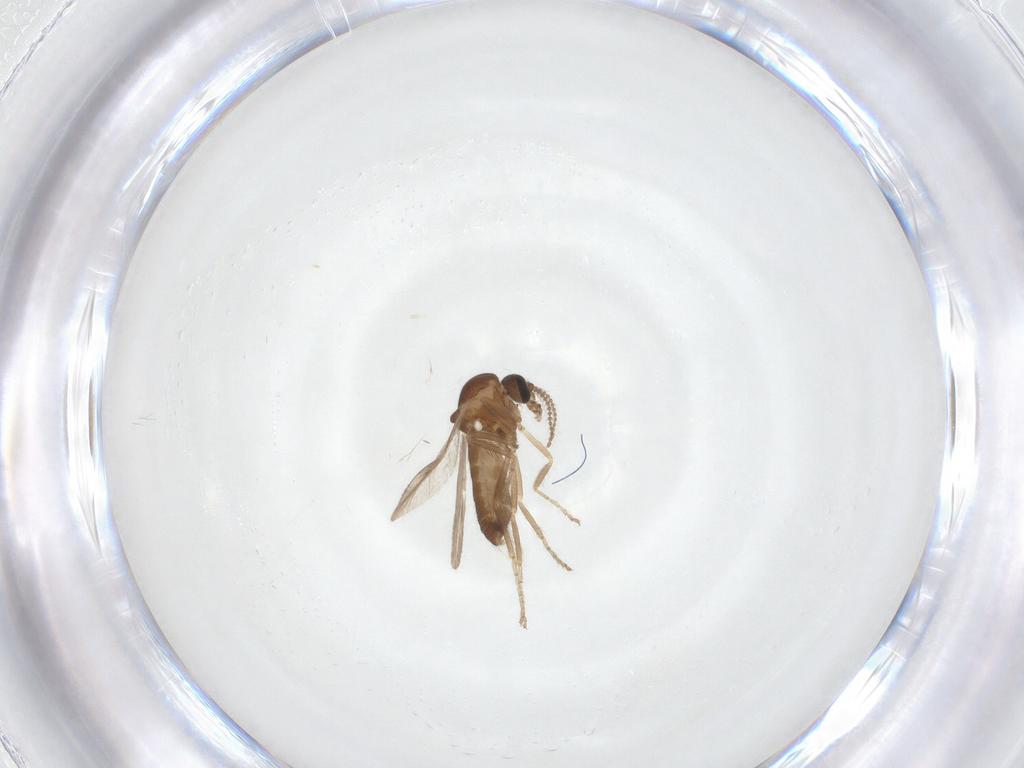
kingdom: Animalia
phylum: Arthropoda
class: Insecta
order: Diptera
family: Ceratopogonidae
